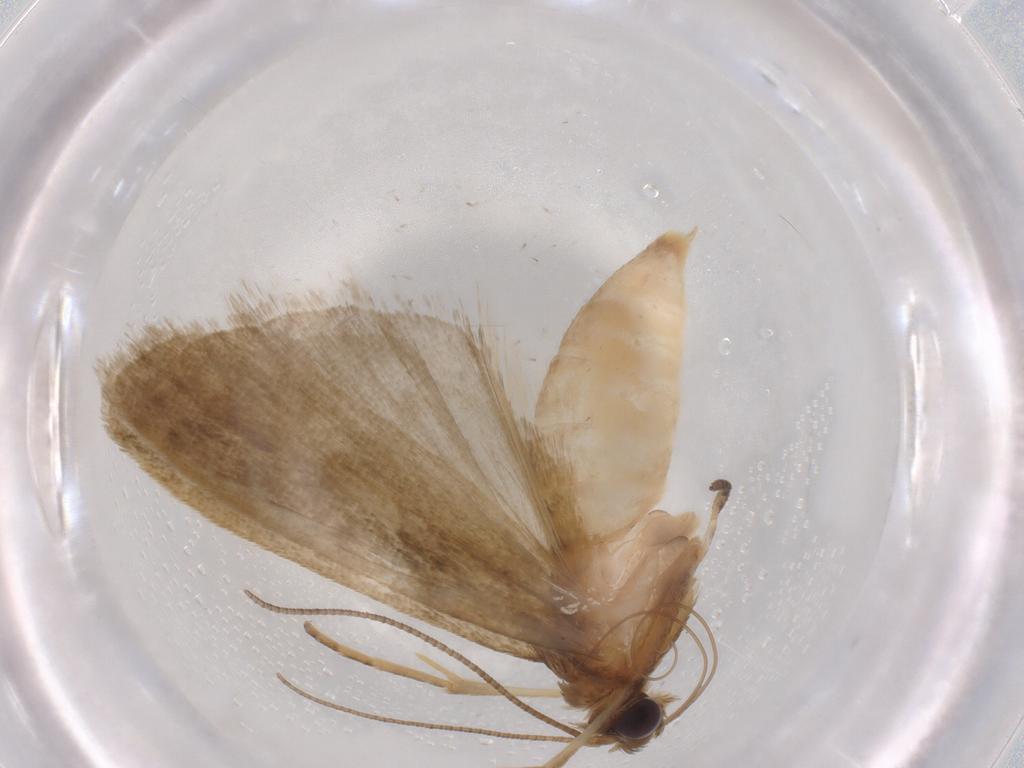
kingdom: Animalia
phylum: Arthropoda
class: Insecta
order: Lepidoptera
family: Noctuidae
